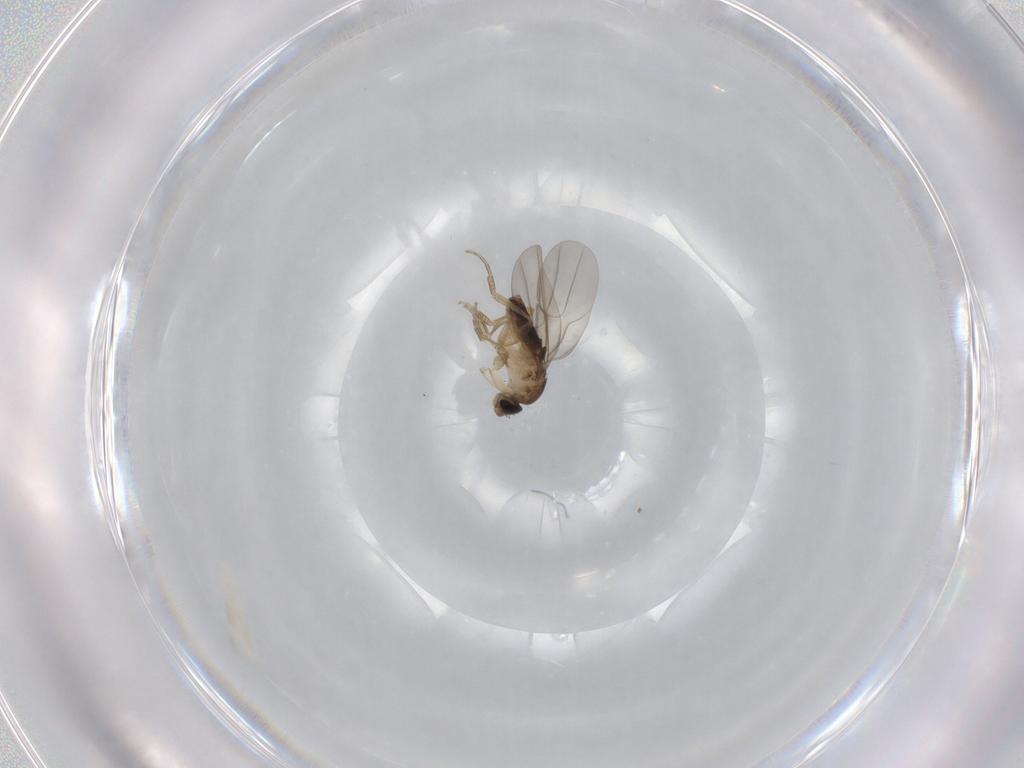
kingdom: Animalia
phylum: Arthropoda
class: Insecta
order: Diptera
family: Phoridae
